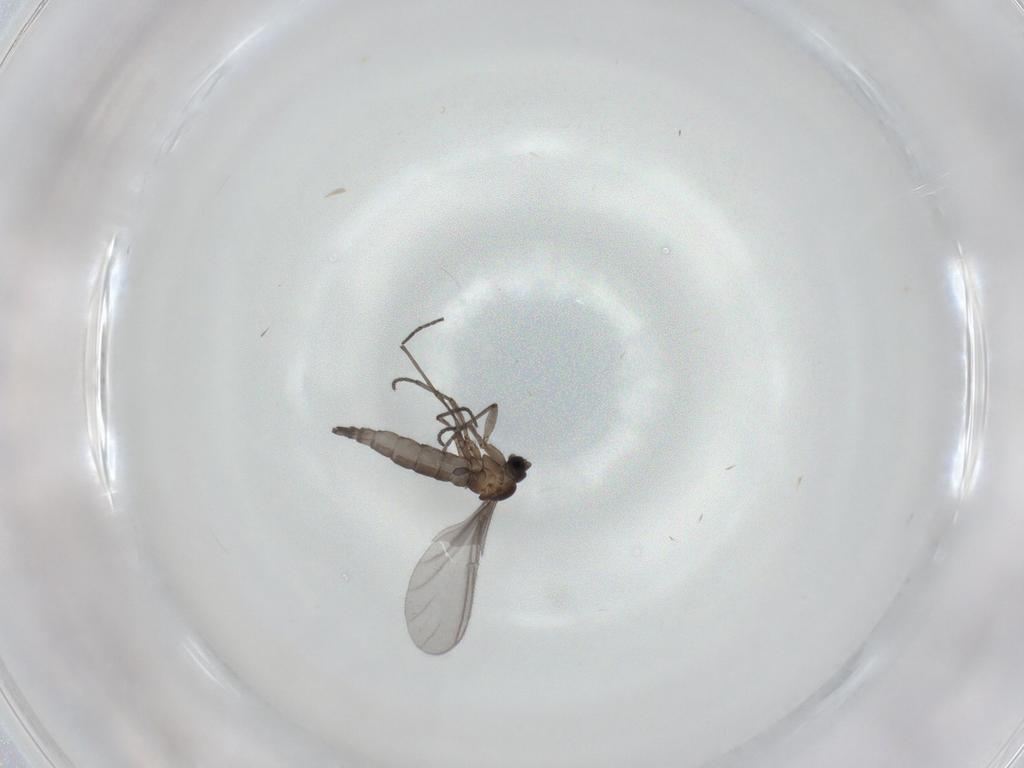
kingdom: Animalia
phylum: Arthropoda
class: Insecta
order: Diptera
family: Sciaridae
